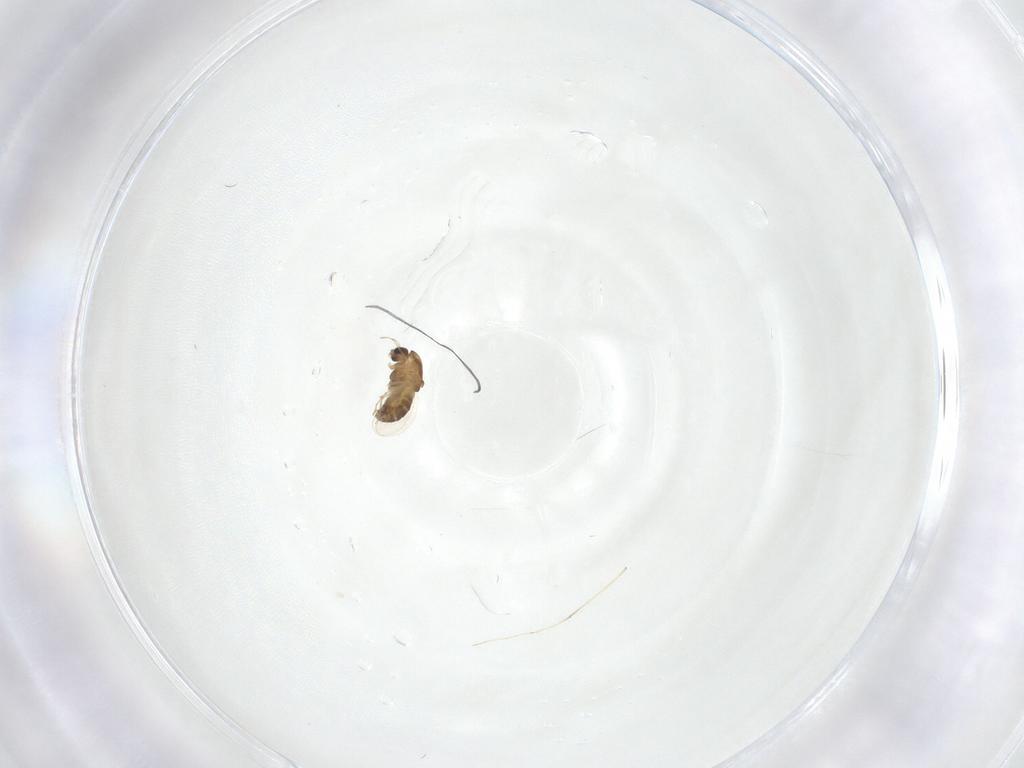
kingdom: Animalia
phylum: Arthropoda
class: Insecta
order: Diptera
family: Chironomidae
